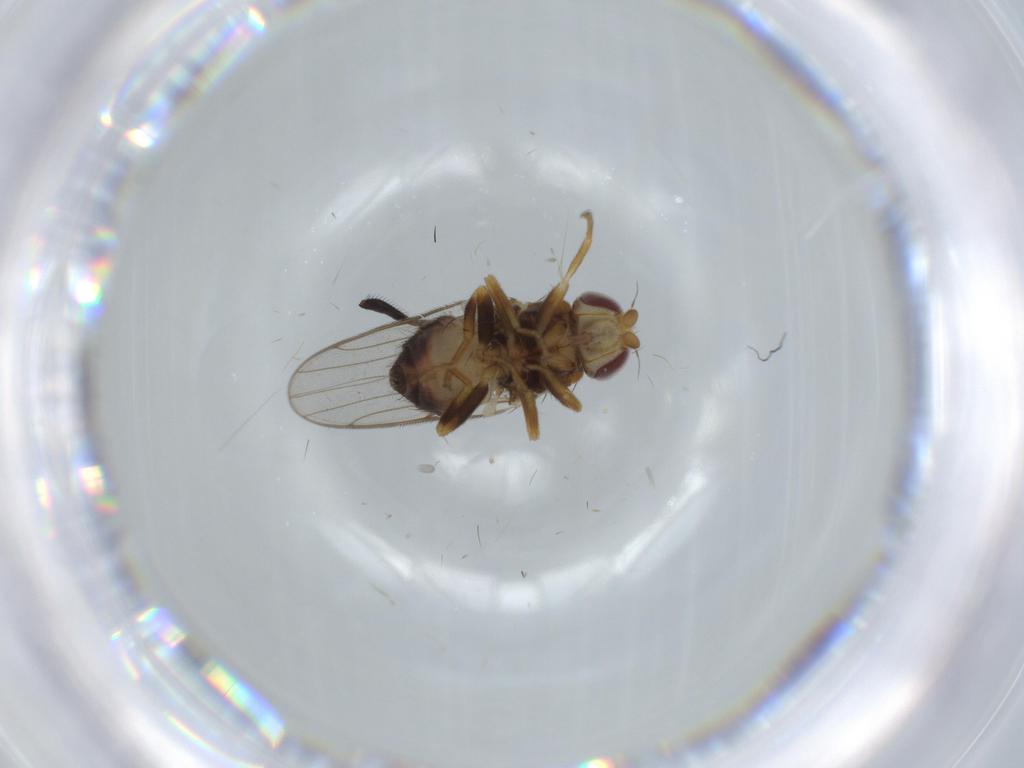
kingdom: Animalia
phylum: Arthropoda
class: Insecta
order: Diptera
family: Chloropidae
